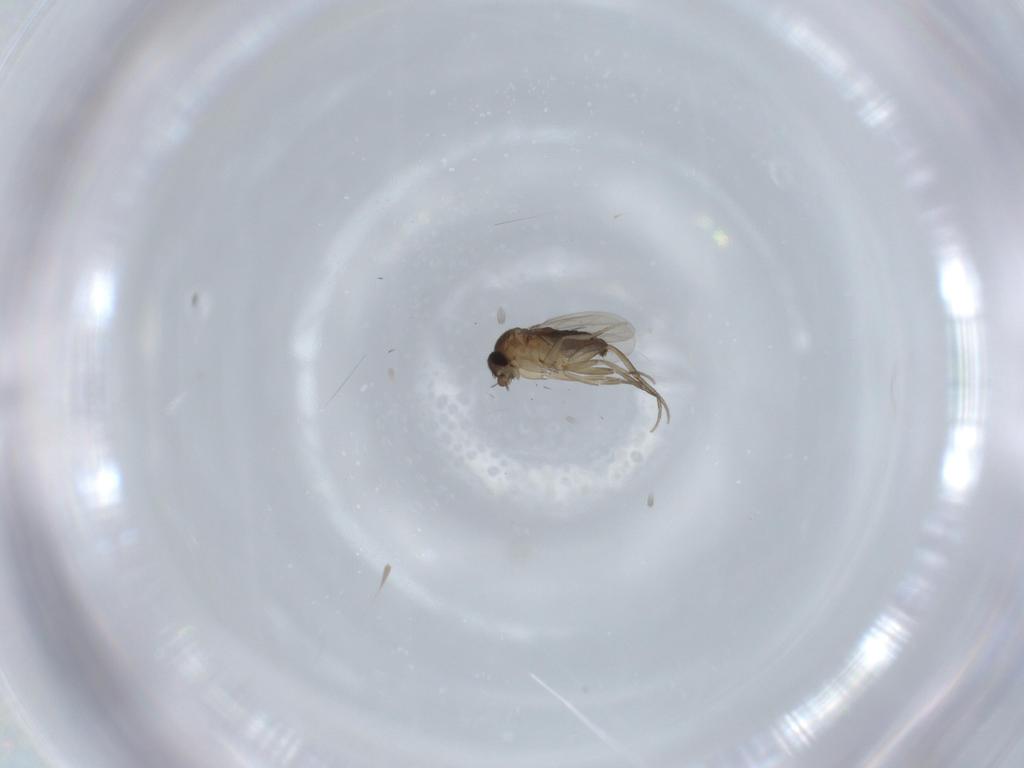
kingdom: Animalia
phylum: Arthropoda
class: Insecta
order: Diptera
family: Phoridae
